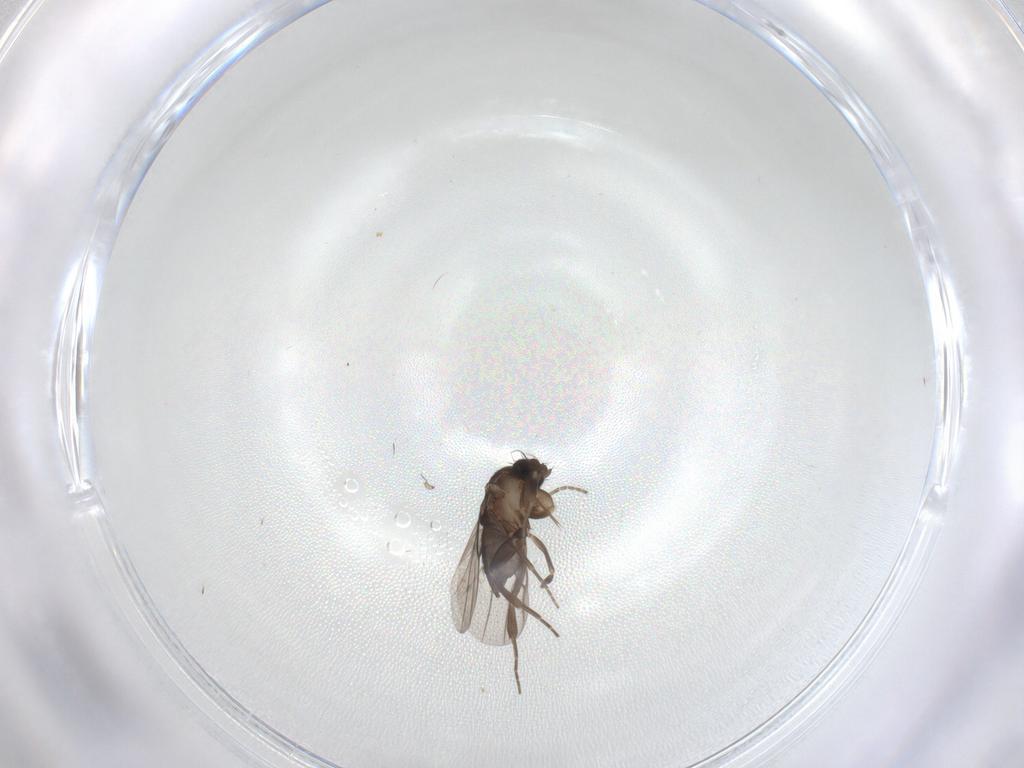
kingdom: Animalia
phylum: Arthropoda
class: Insecta
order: Diptera
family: Phoridae
